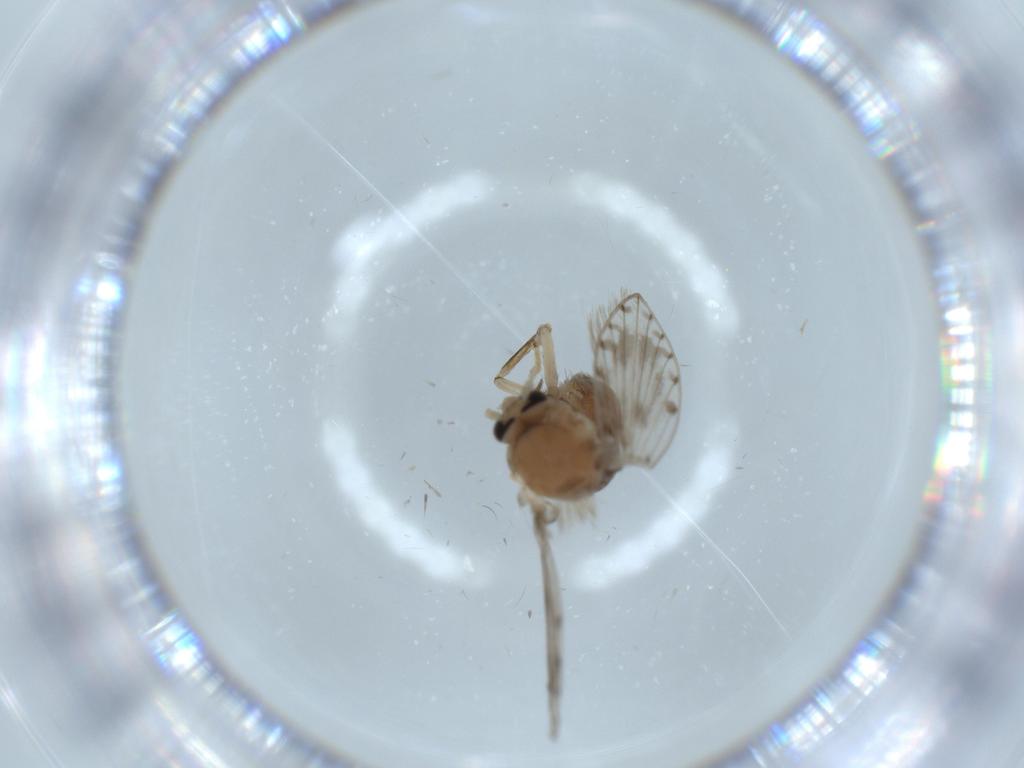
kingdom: Animalia
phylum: Arthropoda
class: Insecta
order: Diptera
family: Psychodidae
